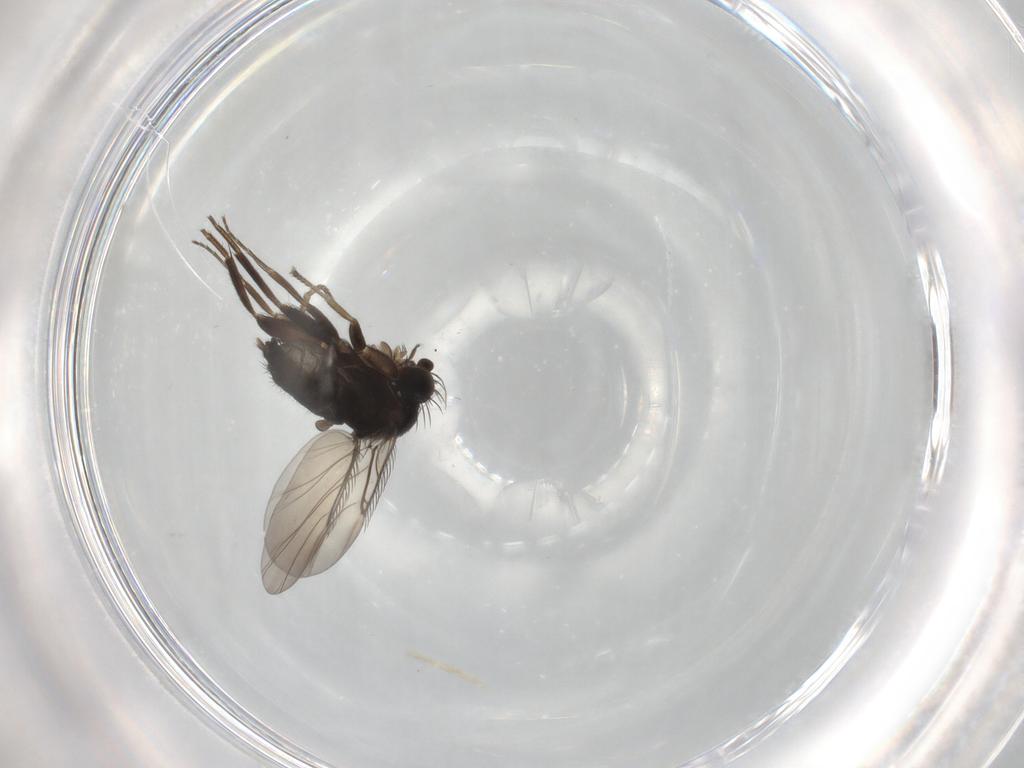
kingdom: Animalia
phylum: Arthropoda
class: Insecta
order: Diptera
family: Phoridae
